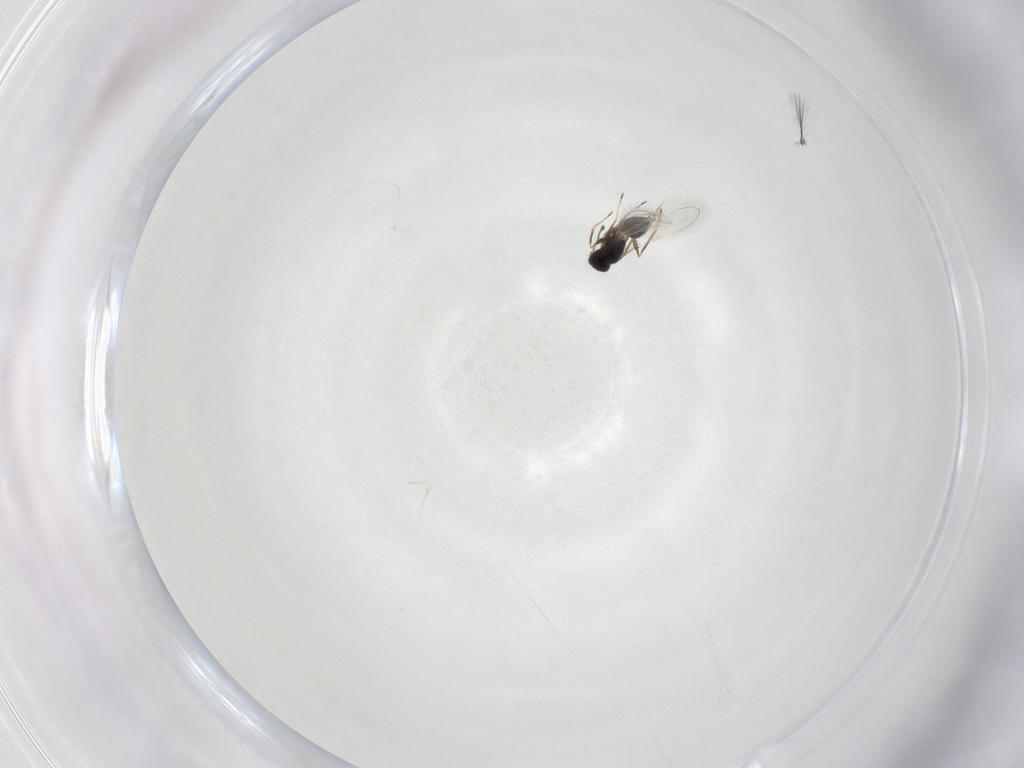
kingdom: Animalia
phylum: Arthropoda
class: Insecta
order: Hymenoptera
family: Mymaridae
